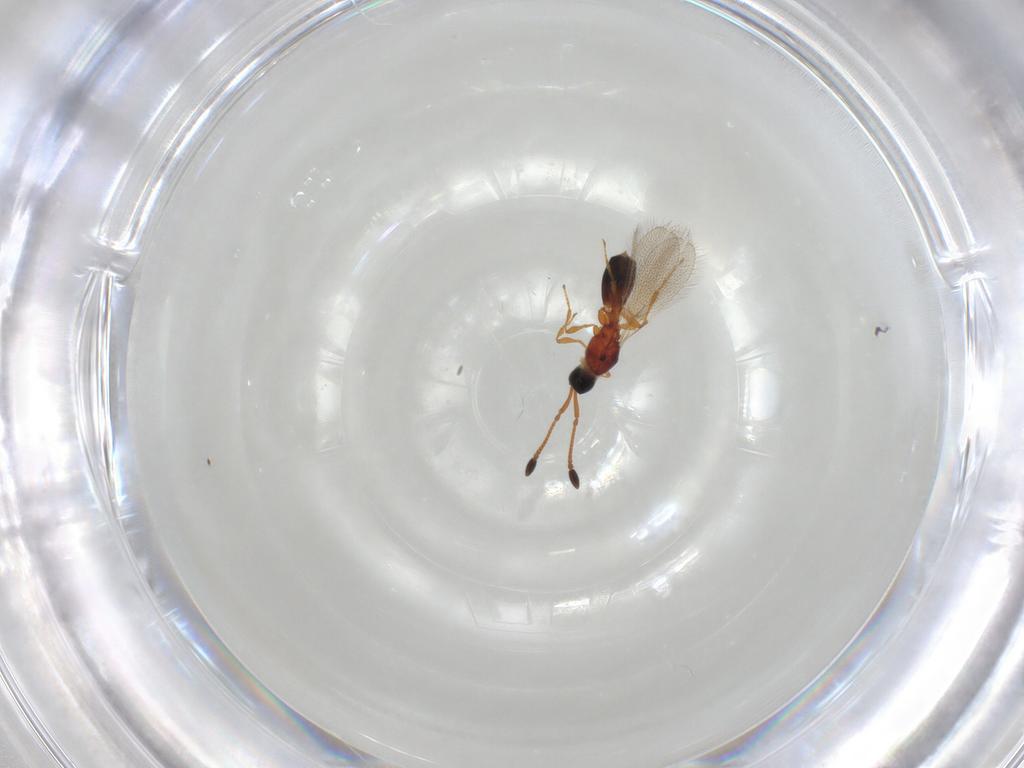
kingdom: Animalia
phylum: Arthropoda
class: Insecta
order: Hymenoptera
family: Diapriidae
